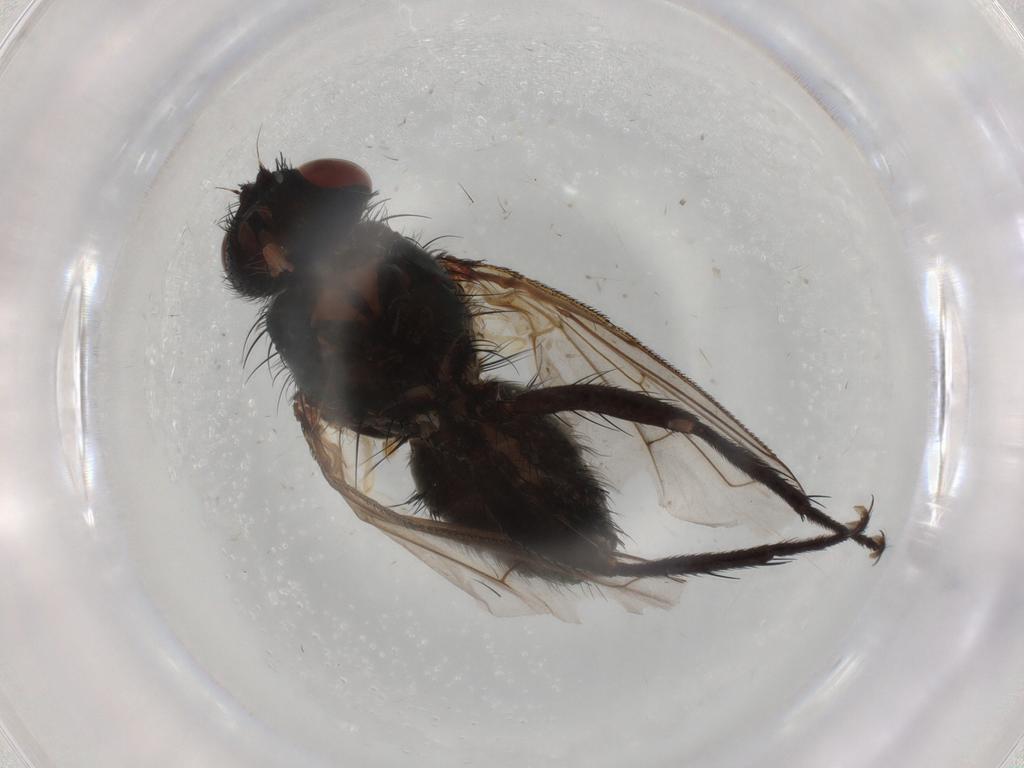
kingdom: Animalia
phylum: Arthropoda
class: Insecta
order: Diptera
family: Calliphoridae
